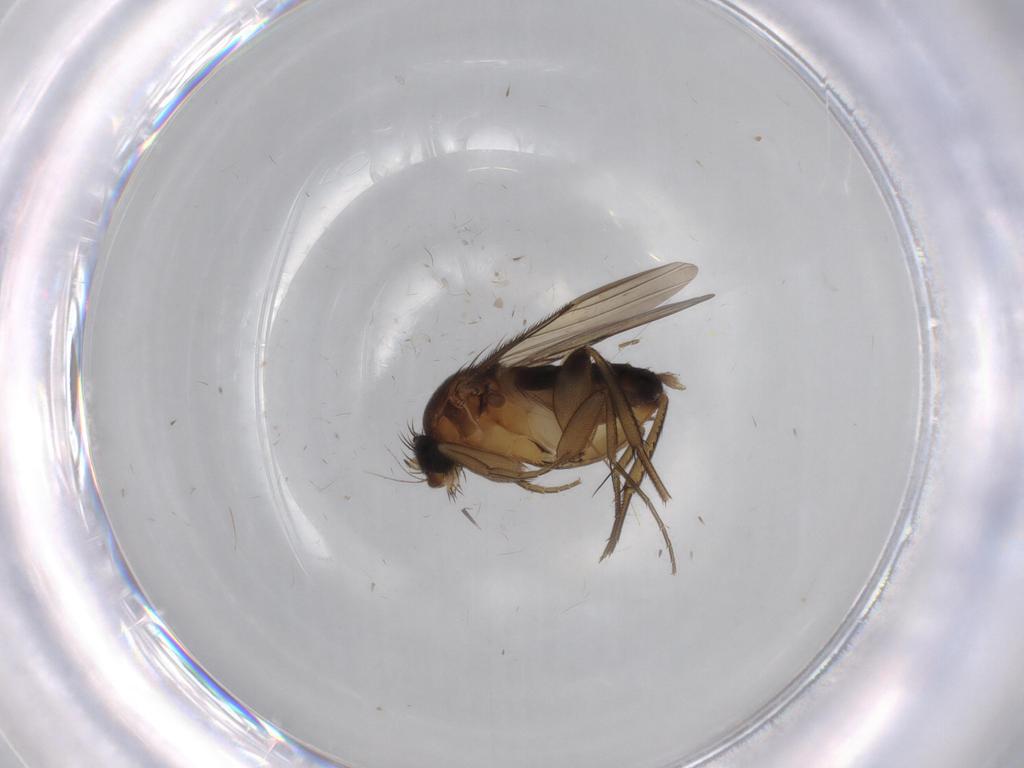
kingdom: Animalia
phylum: Arthropoda
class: Insecta
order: Diptera
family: Phoridae
